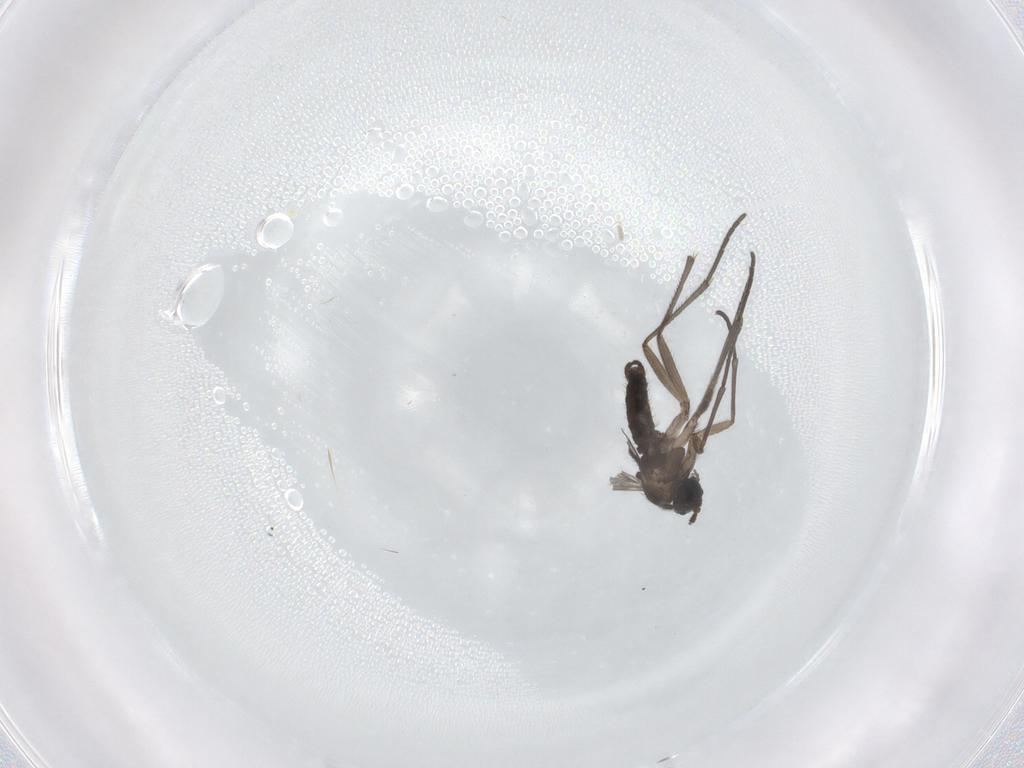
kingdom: Animalia
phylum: Arthropoda
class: Insecta
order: Diptera
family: Sciaridae
